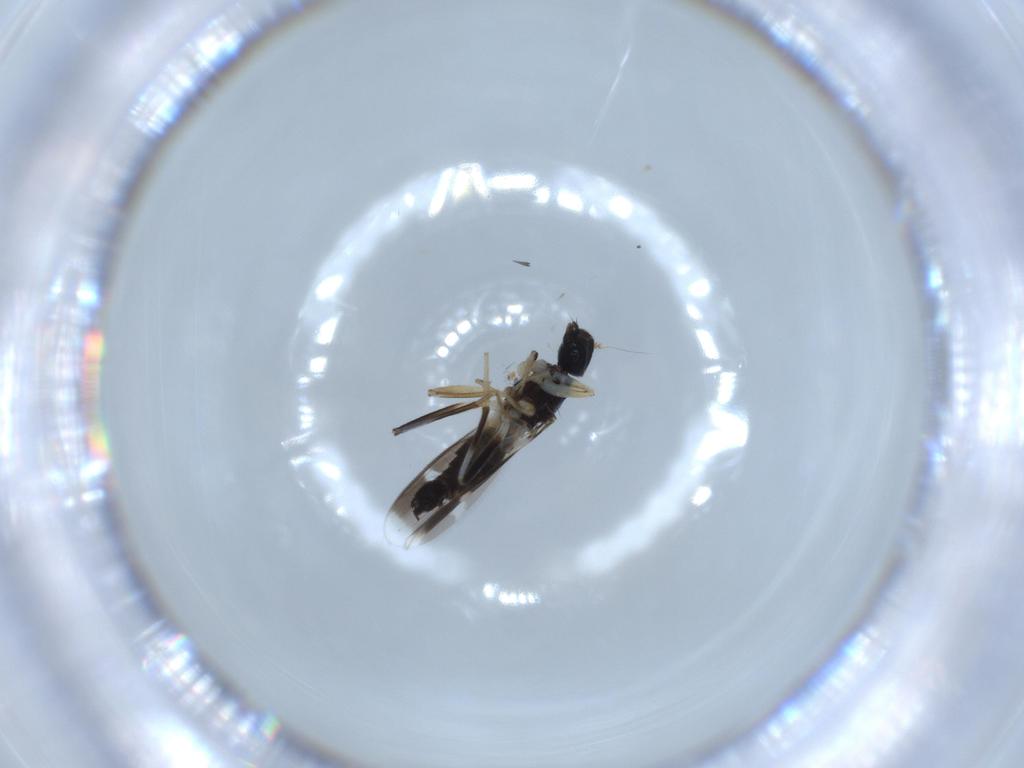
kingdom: Animalia
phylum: Arthropoda
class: Insecta
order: Diptera
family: Hybotidae
